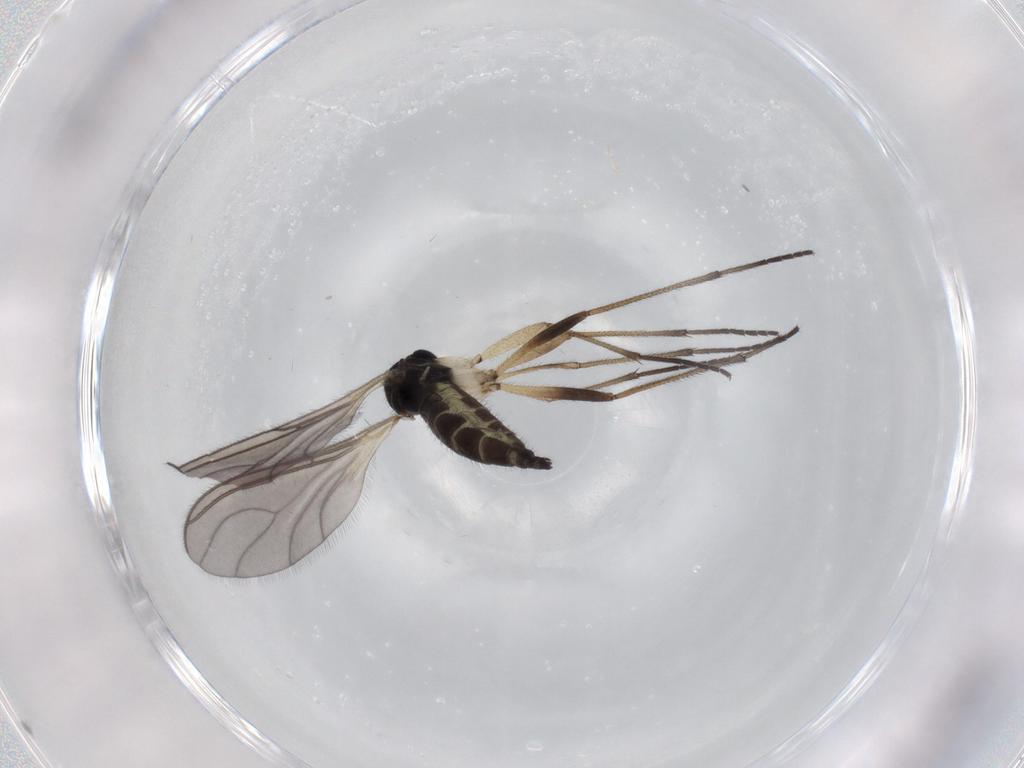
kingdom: Animalia
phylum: Arthropoda
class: Insecta
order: Diptera
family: Sciaridae
